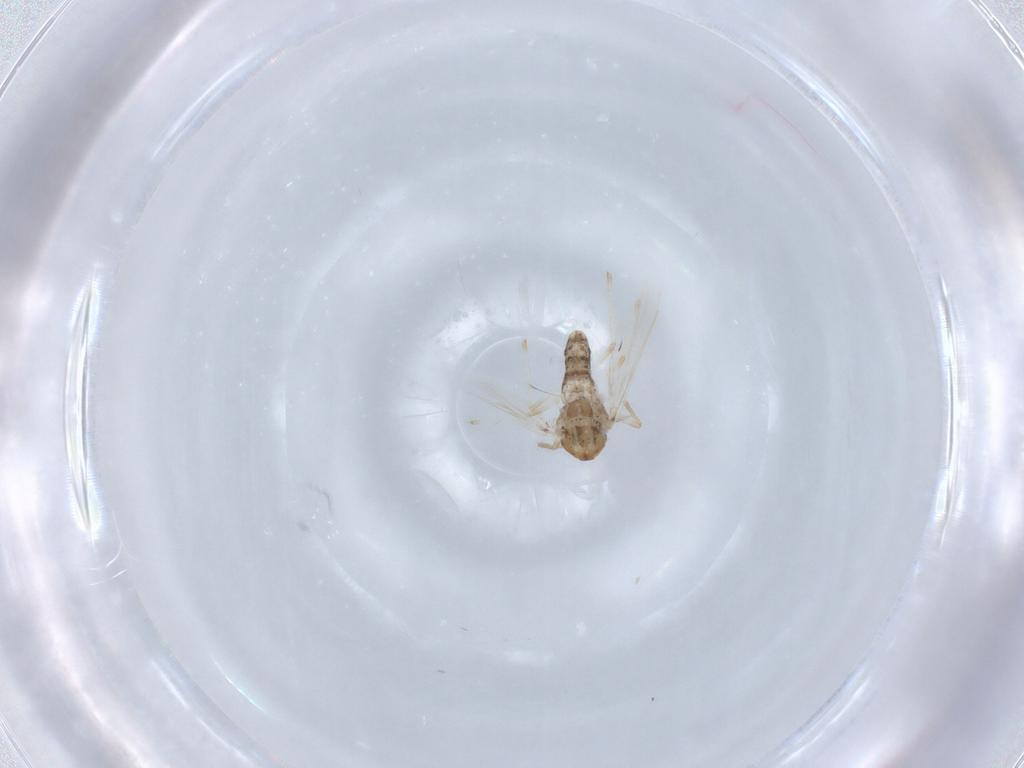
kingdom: Animalia
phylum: Arthropoda
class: Insecta
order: Diptera
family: Chironomidae
